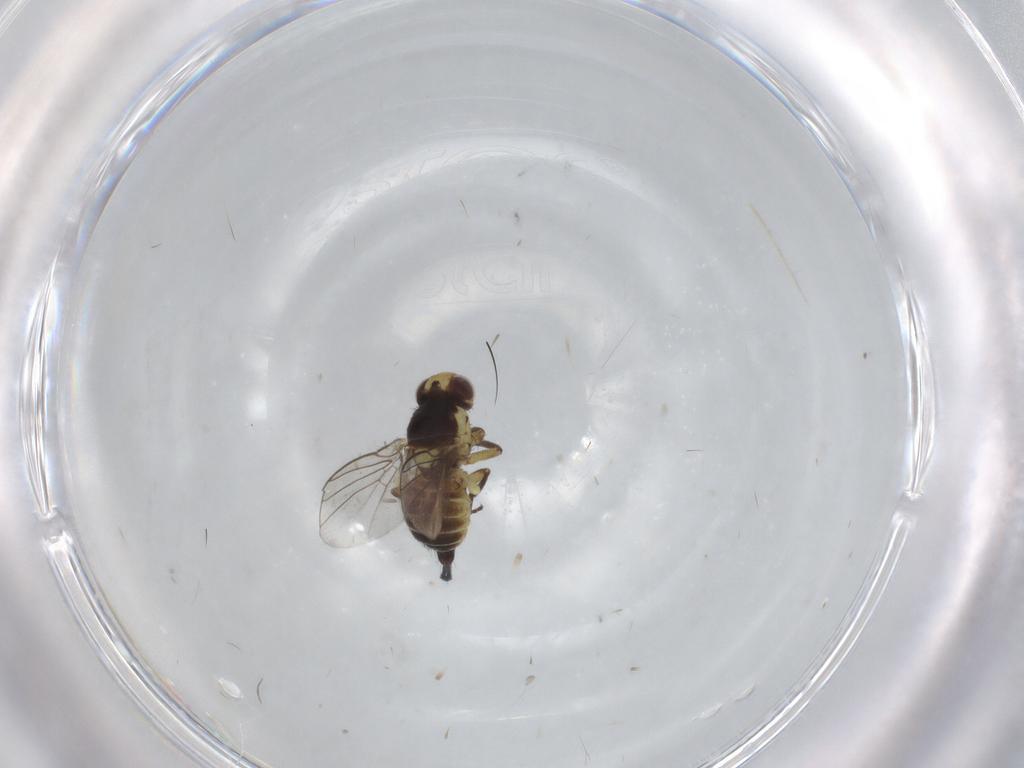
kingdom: Animalia
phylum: Arthropoda
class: Insecta
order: Diptera
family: Agromyzidae
